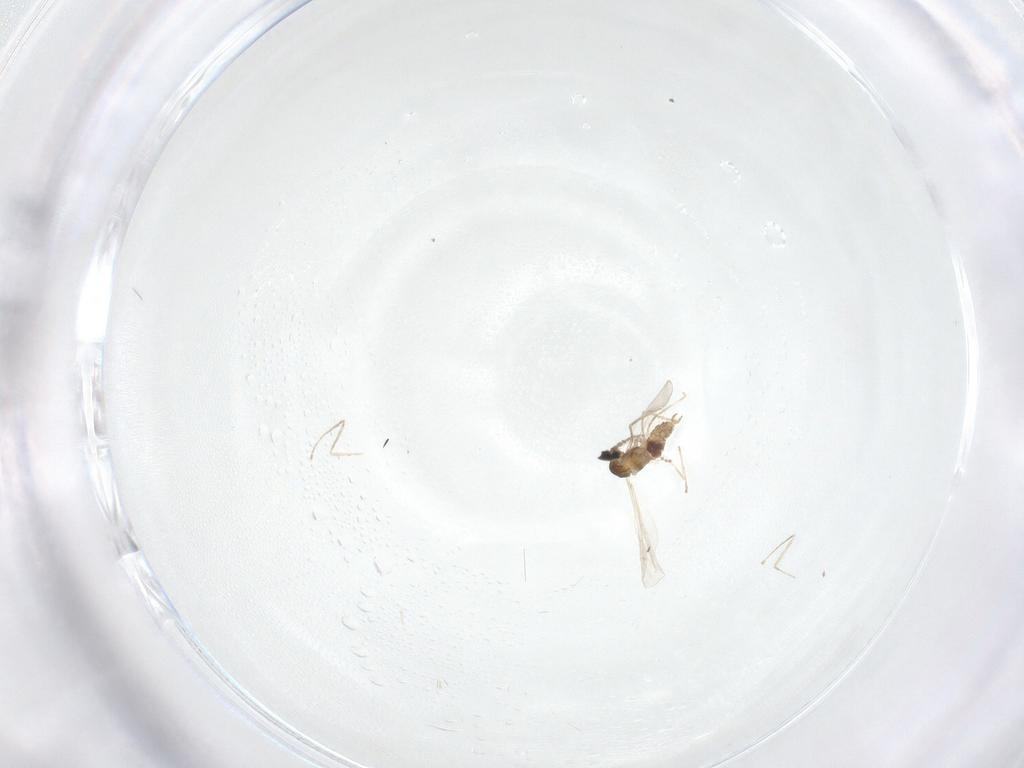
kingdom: Animalia
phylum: Arthropoda
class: Insecta
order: Diptera
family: Cecidomyiidae
